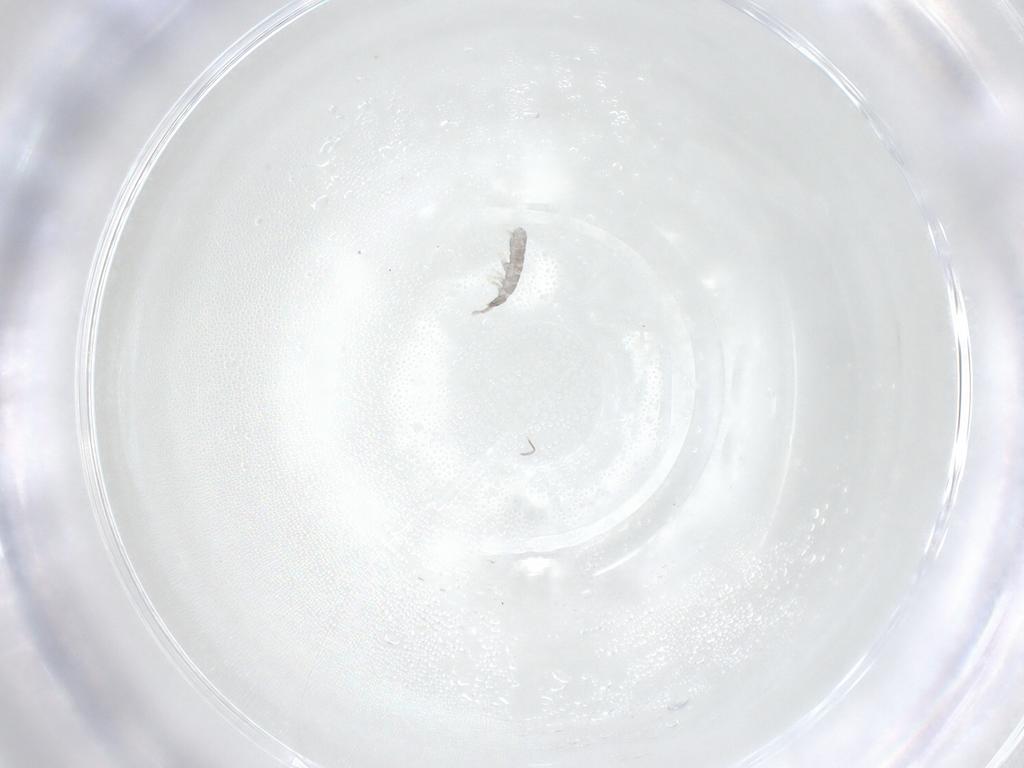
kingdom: Animalia
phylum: Arthropoda
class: Collembola
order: Entomobryomorpha
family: Isotomidae
